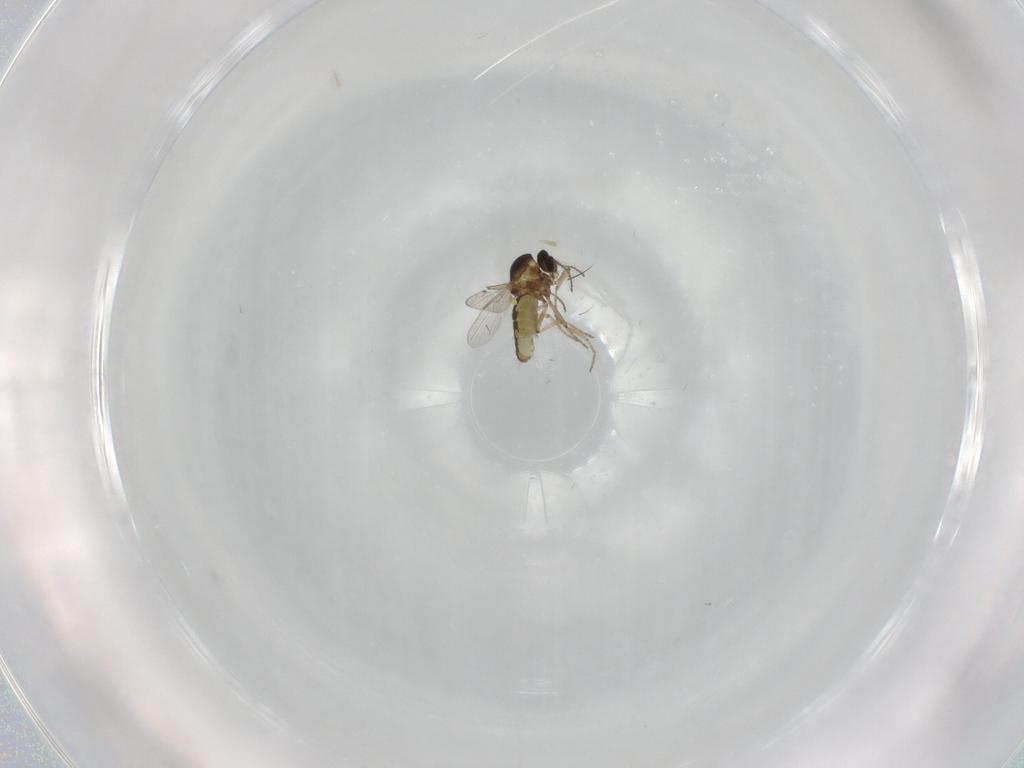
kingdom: Animalia
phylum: Arthropoda
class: Insecta
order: Diptera
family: Ceratopogonidae
